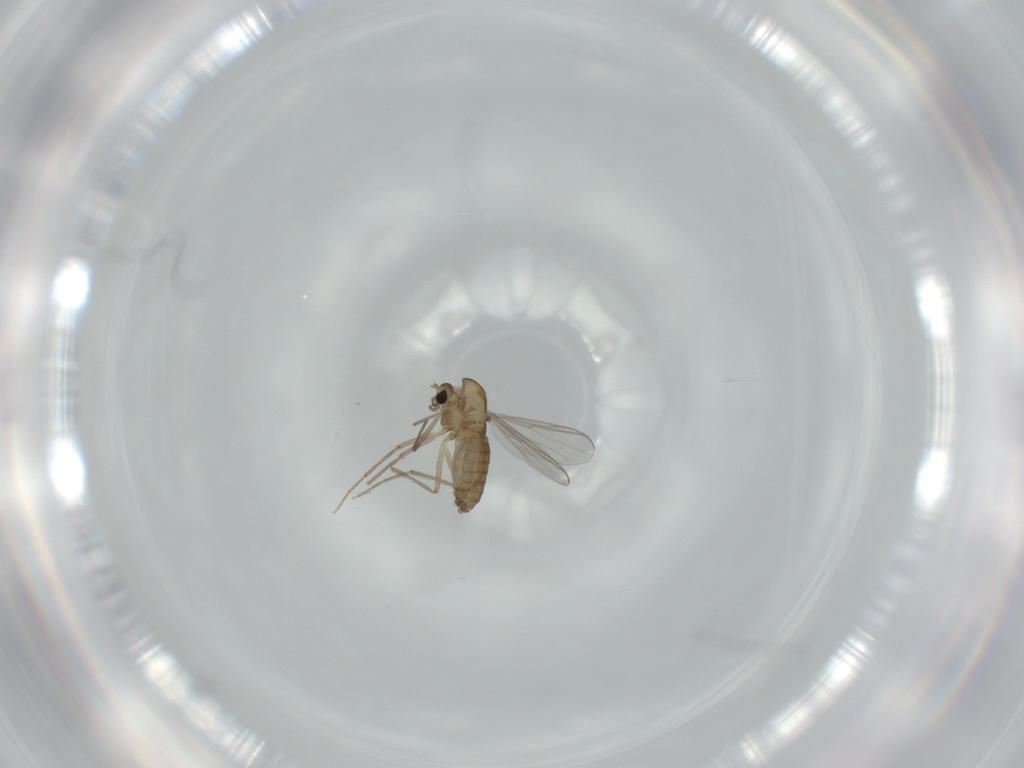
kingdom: Animalia
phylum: Arthropoda
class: Insecta
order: Diptera
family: Chironomidae
